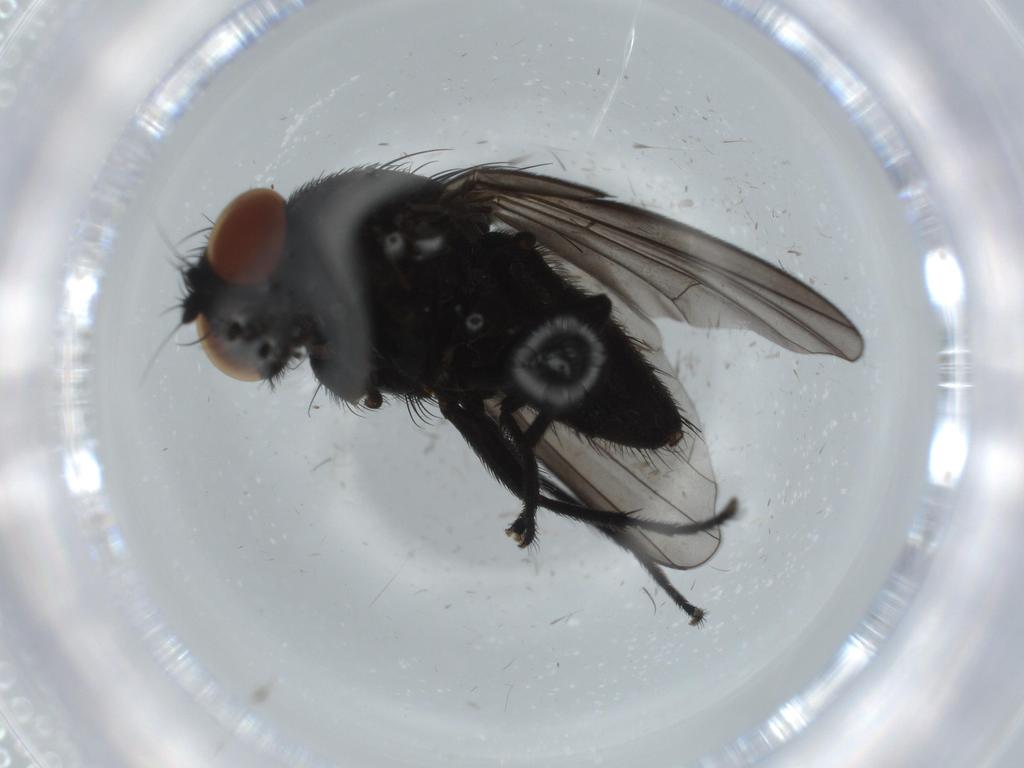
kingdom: Animalia
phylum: Arthropoda
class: Insecta
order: Diptera
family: Milichiidae
